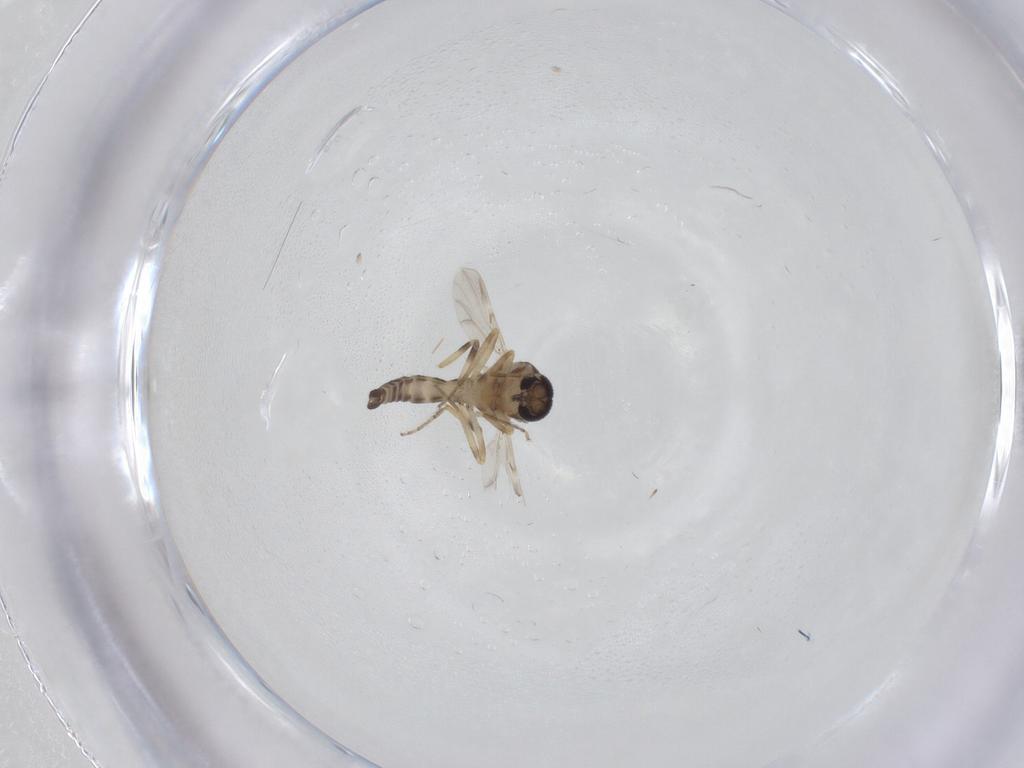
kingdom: Animalia
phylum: Arthropoda
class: Insecta
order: Diptera
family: Ceratopogonidae
